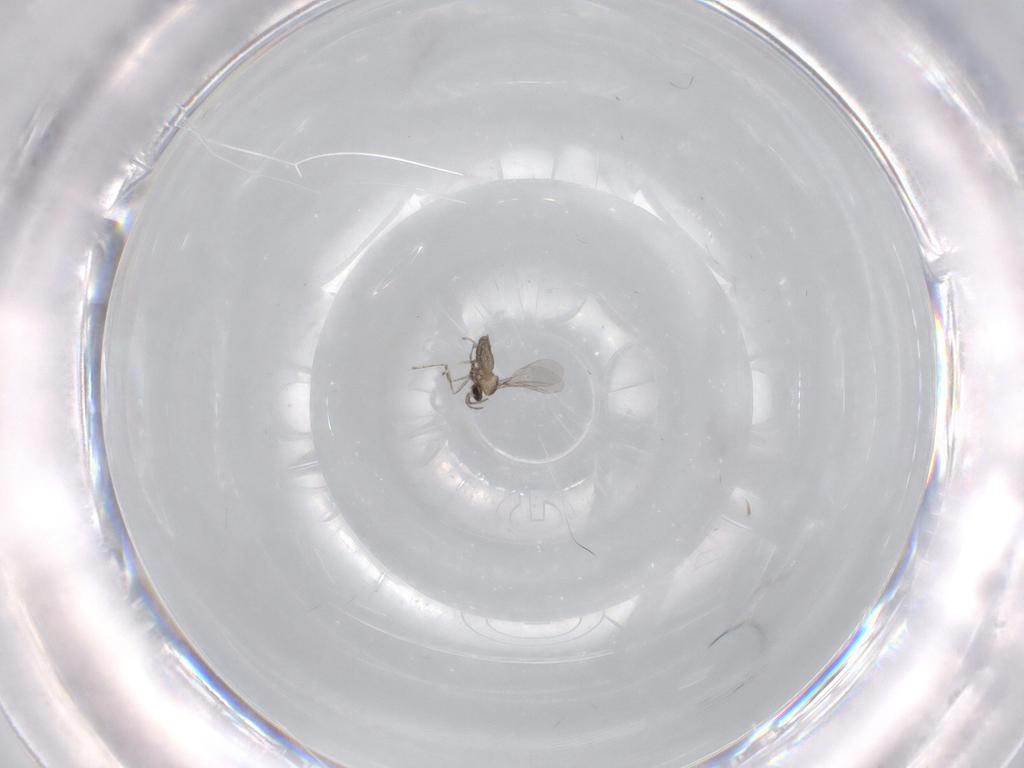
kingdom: Animalia
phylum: Arthropoda
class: Insecta
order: Diptera
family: Cecidomyiidae
